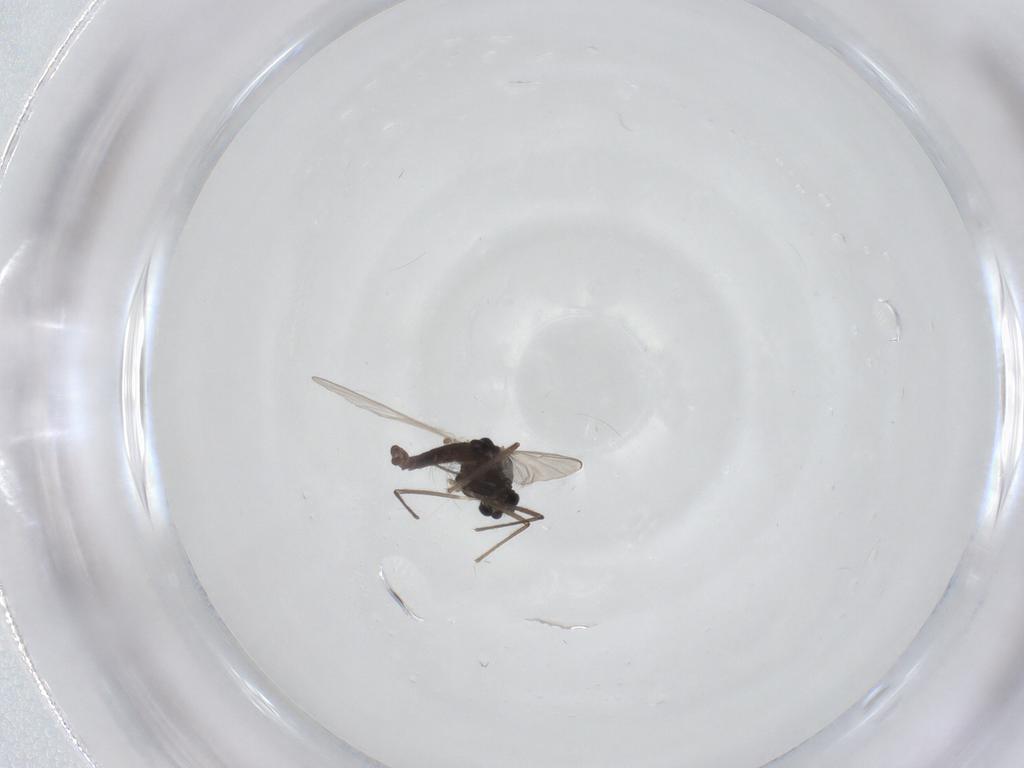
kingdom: Animalia
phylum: Arthropoda
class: Insecta
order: Diptera
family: Chironomidae
